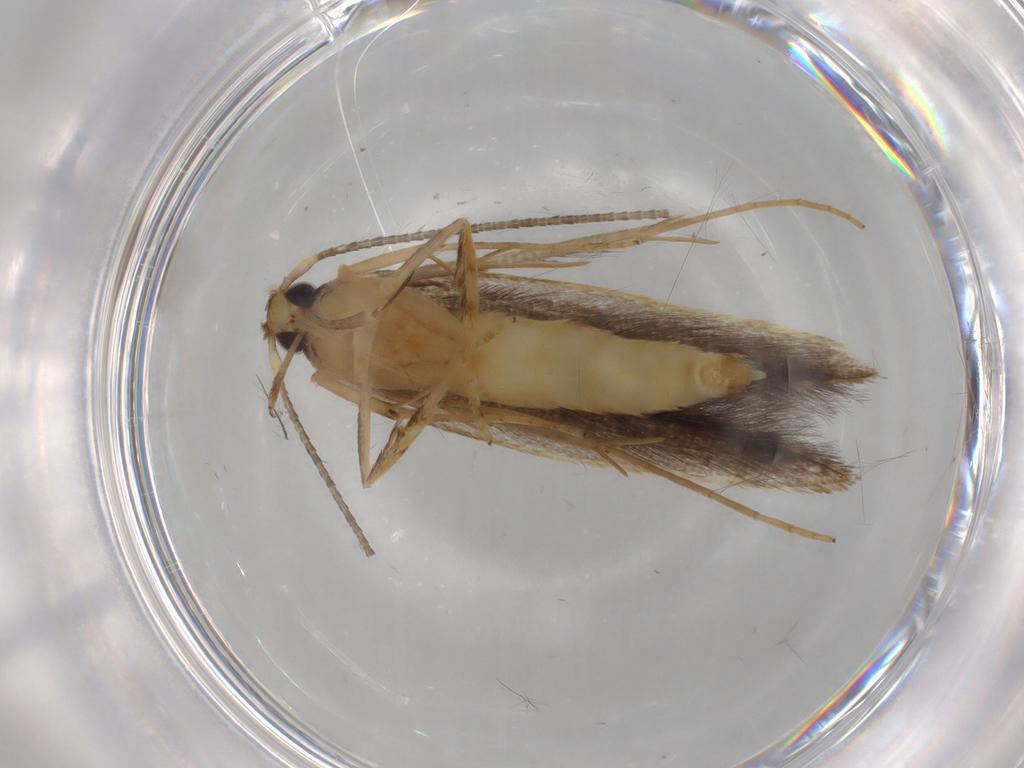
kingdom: Animalia
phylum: Arthropoda
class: Insecta
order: Lepidoptera
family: Pterolonchidae
